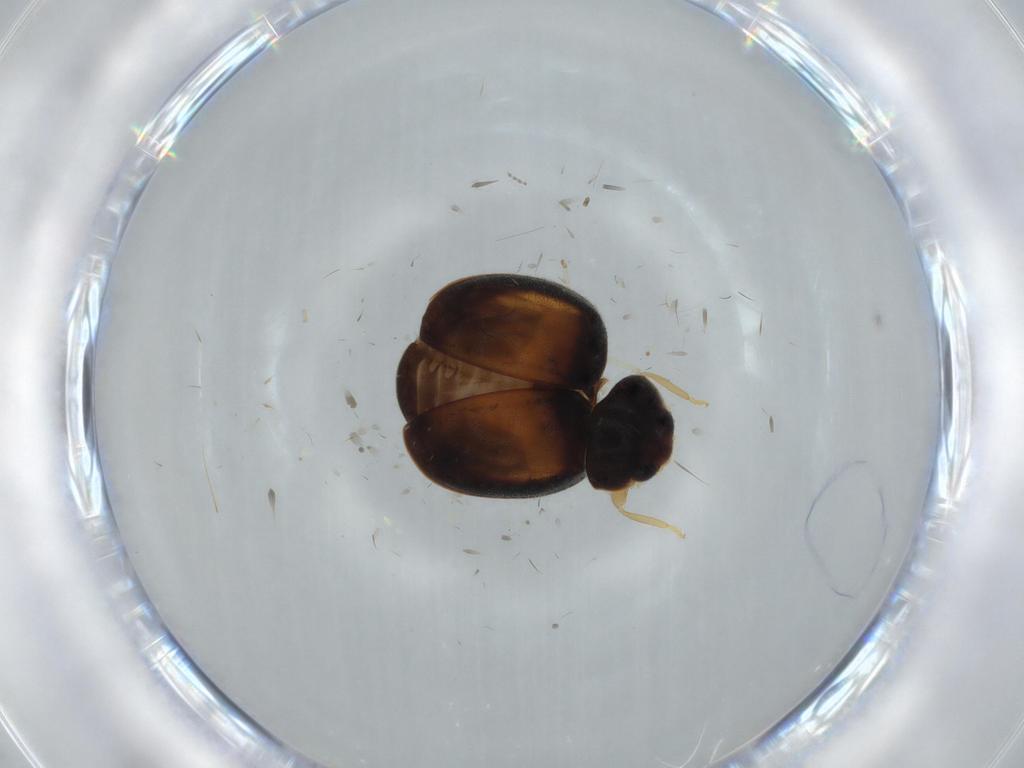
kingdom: Animalia
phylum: Arthropoda
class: Insecta
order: Coleoptera
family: Coccinellidae
